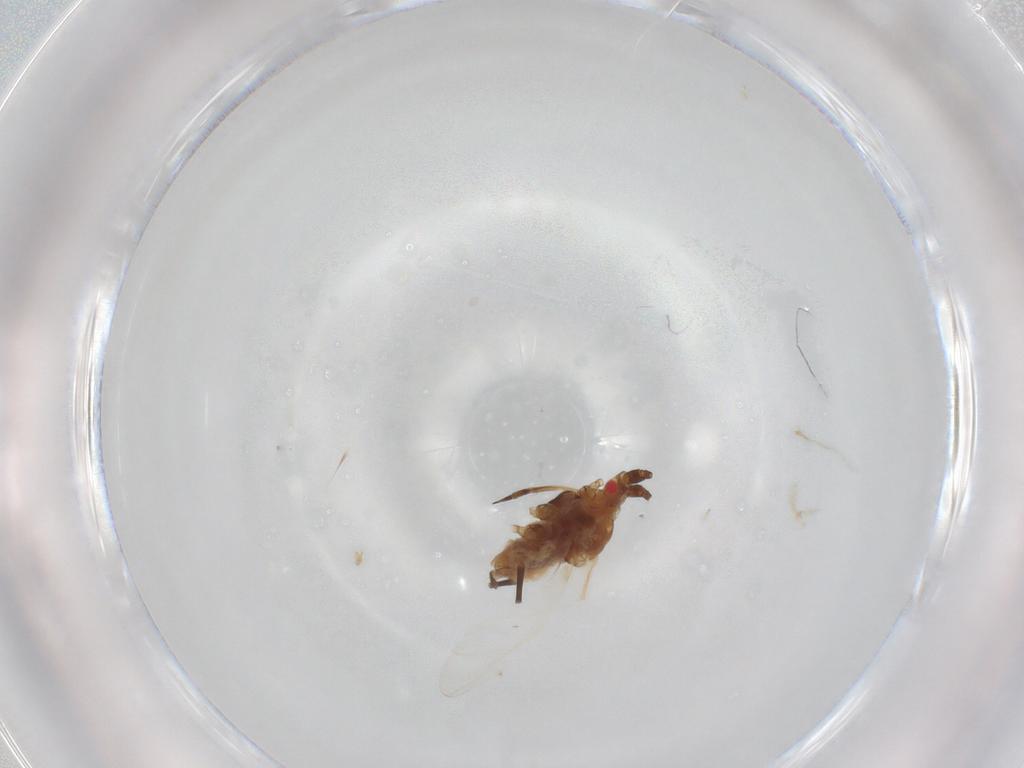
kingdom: Animalia
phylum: Arthropoda
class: Insecta
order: Hemiptera
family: Aphididae
